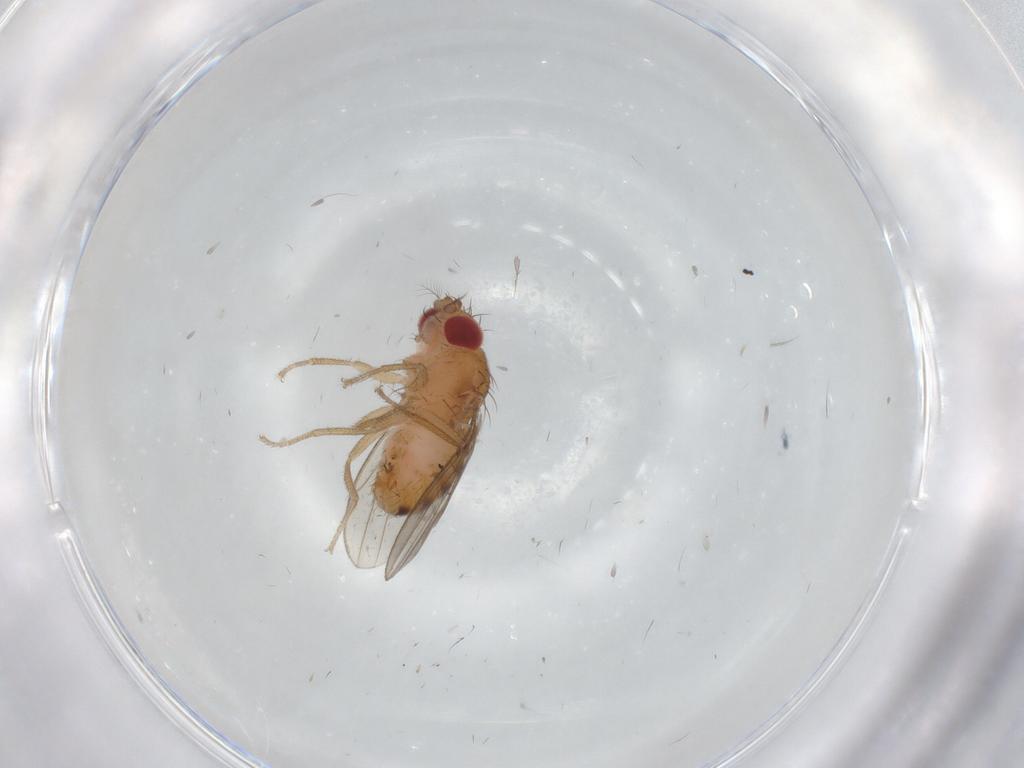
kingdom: Animalia
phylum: Arthropoda
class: Insecta
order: Diptera
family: Drosophilidae
